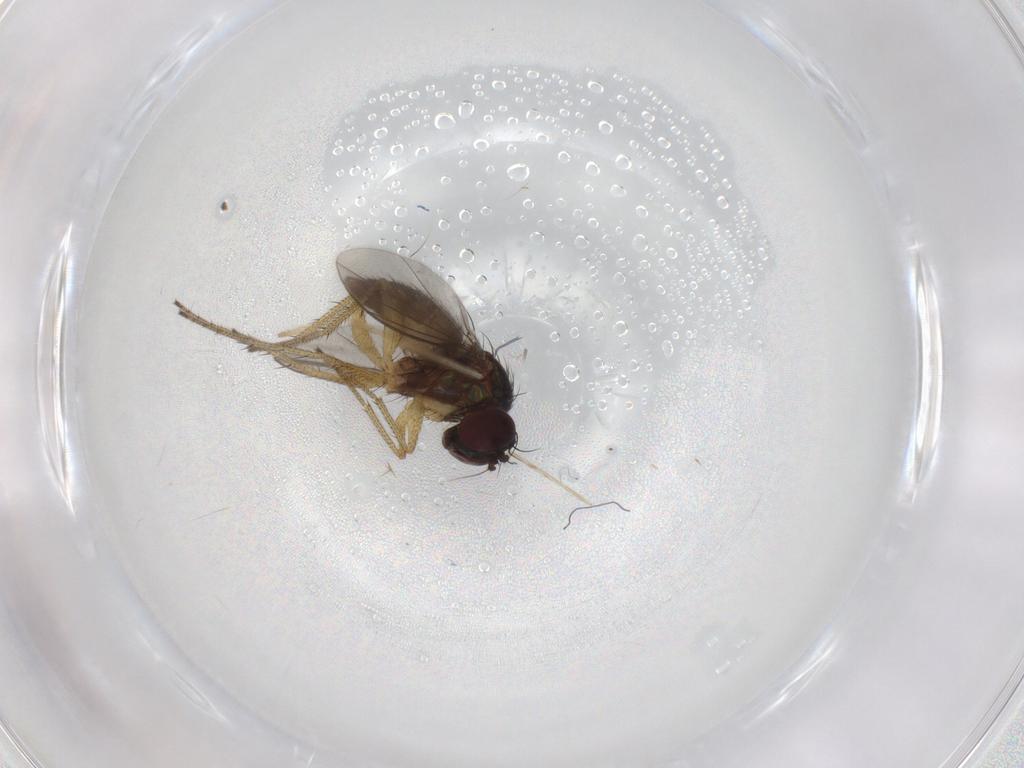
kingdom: Animalia
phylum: Arthropoda
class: Insecta
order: Diptera
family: Chironomidae
